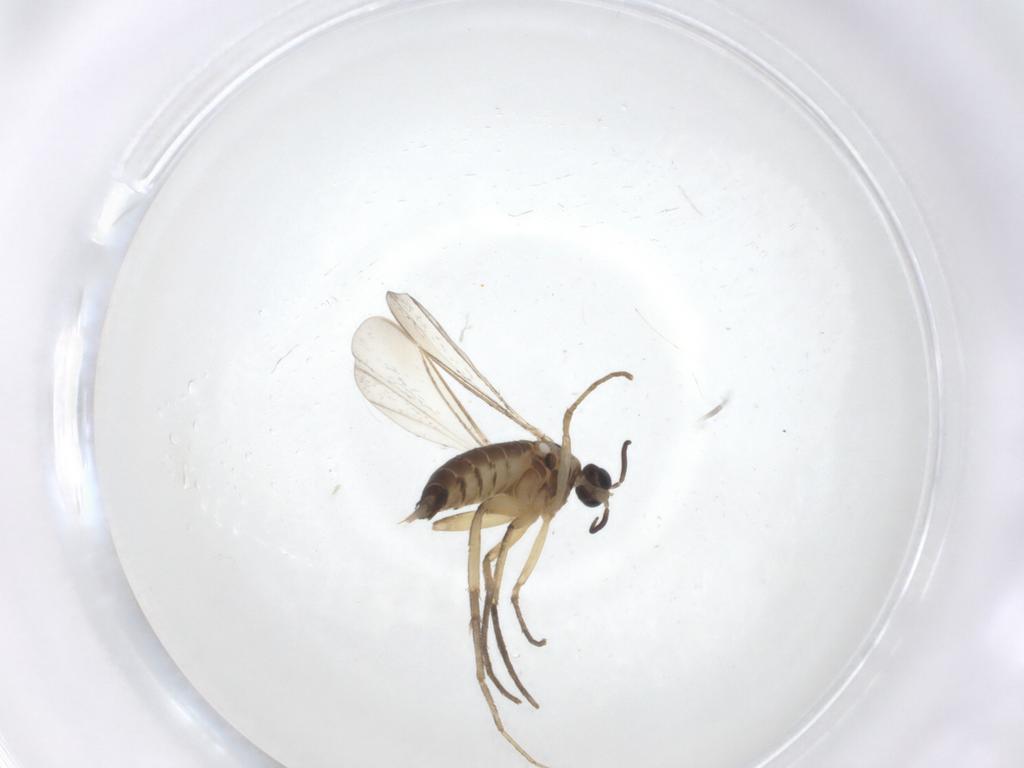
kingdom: Animalia
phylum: Arthropoda
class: Insecta
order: Diptera
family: Cecidomyiidae
